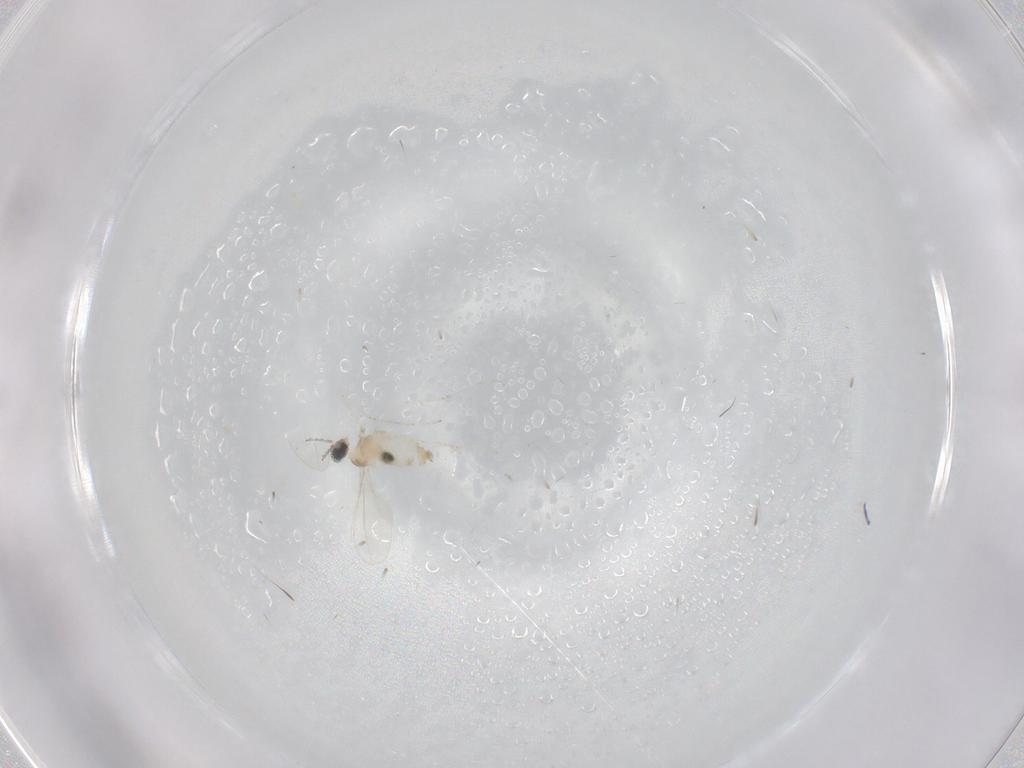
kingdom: Animalia
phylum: Arthropoda
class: Insecta
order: Diptera
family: Cecidomyiidae
